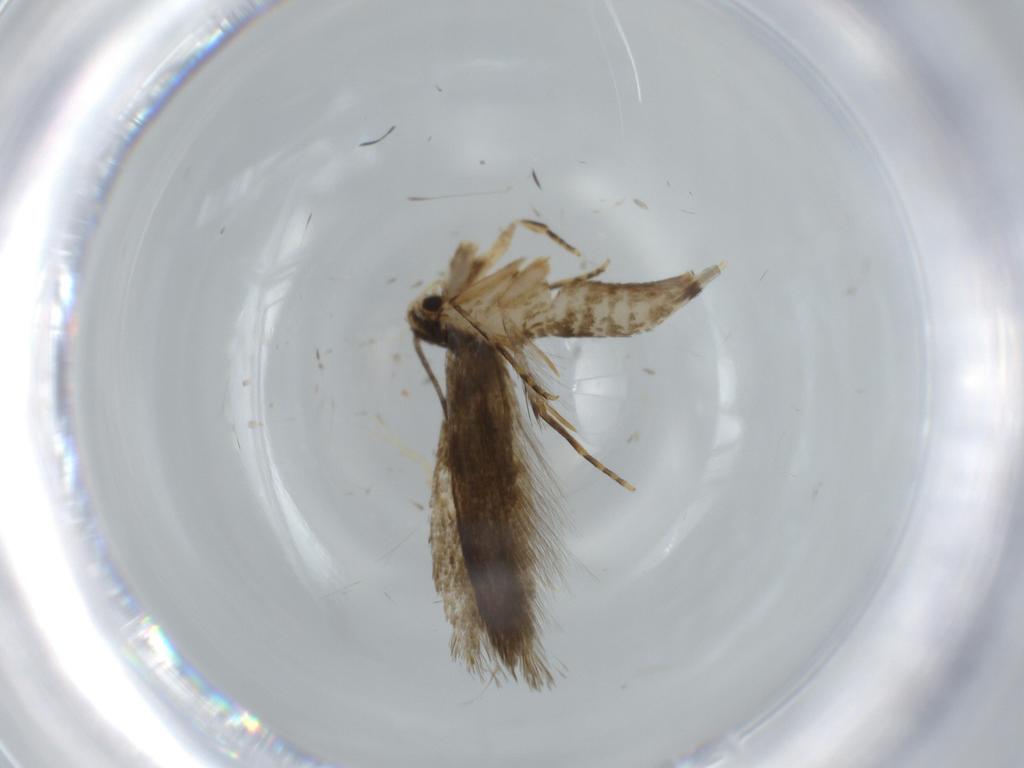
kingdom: Animalia
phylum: Arthropoda
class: Insecta
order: Lepidoptera
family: Tineidae
